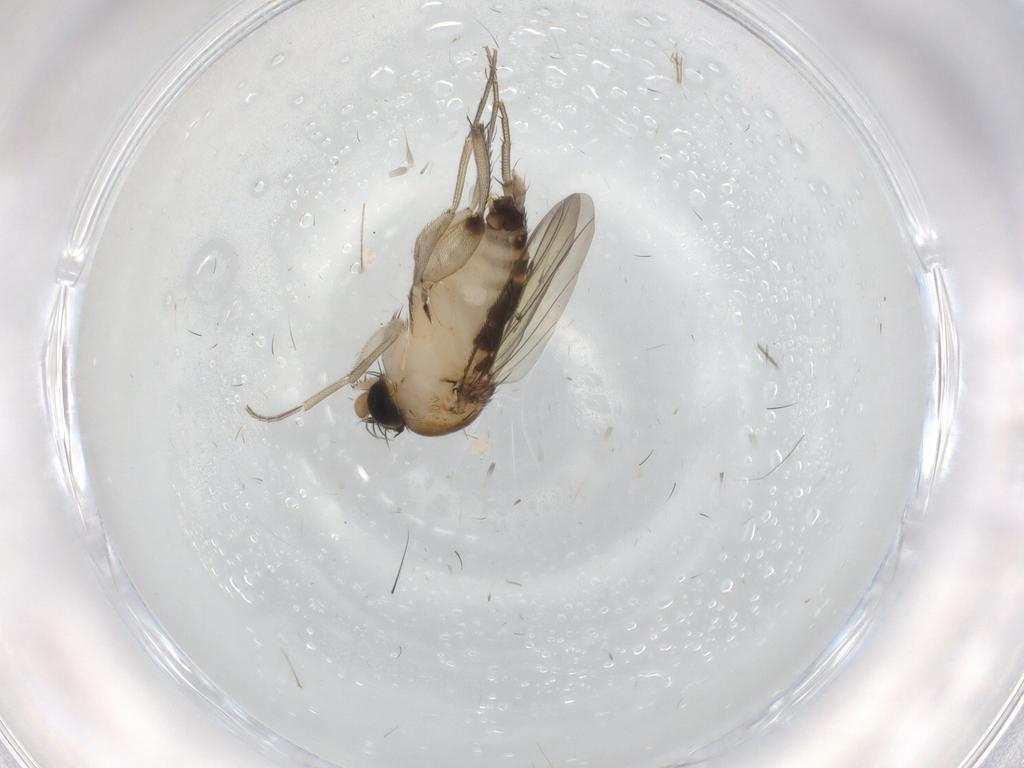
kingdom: Animalia
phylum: Arthropoda
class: Insecta
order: Diptera
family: Phoridae
